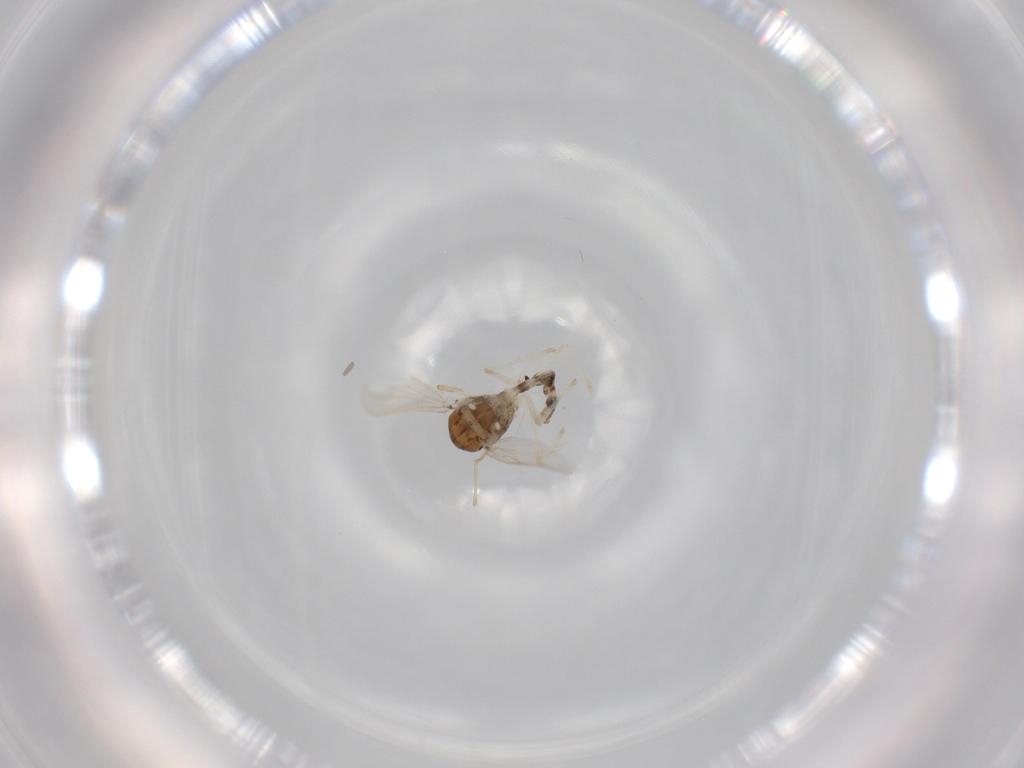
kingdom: Animalia
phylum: Arthropoda
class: Insecta
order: Diptera
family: Chironomidae
